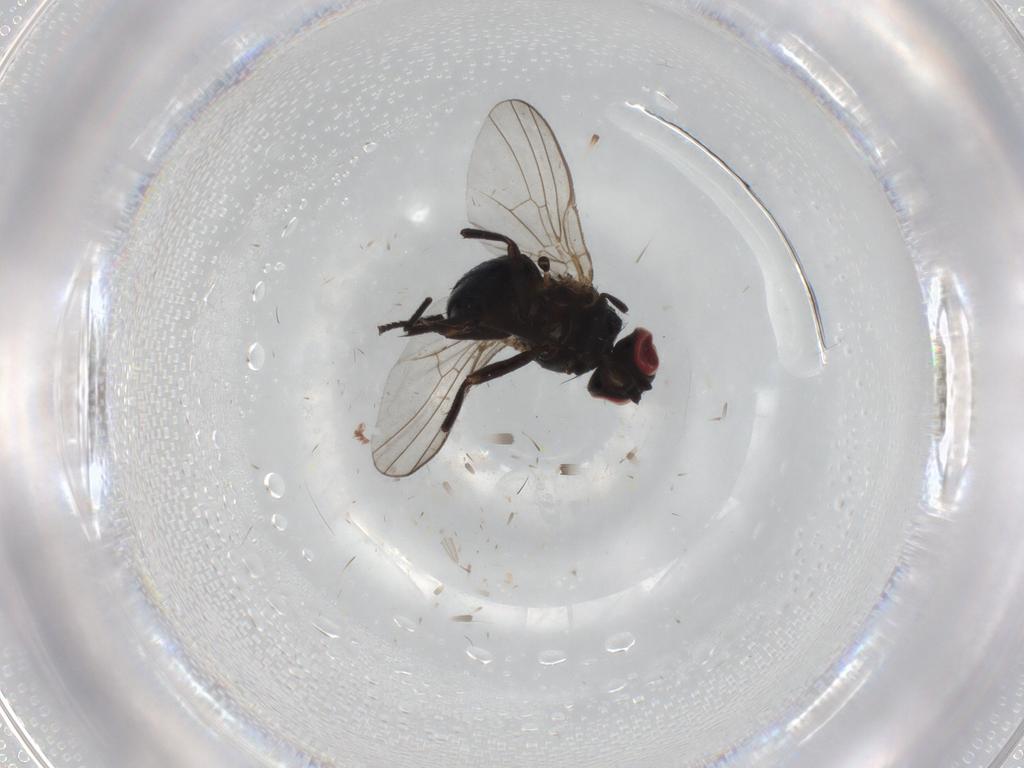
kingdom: Animalia
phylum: Arthropoda
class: Insecta
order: Diptera
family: Agromyzidae
